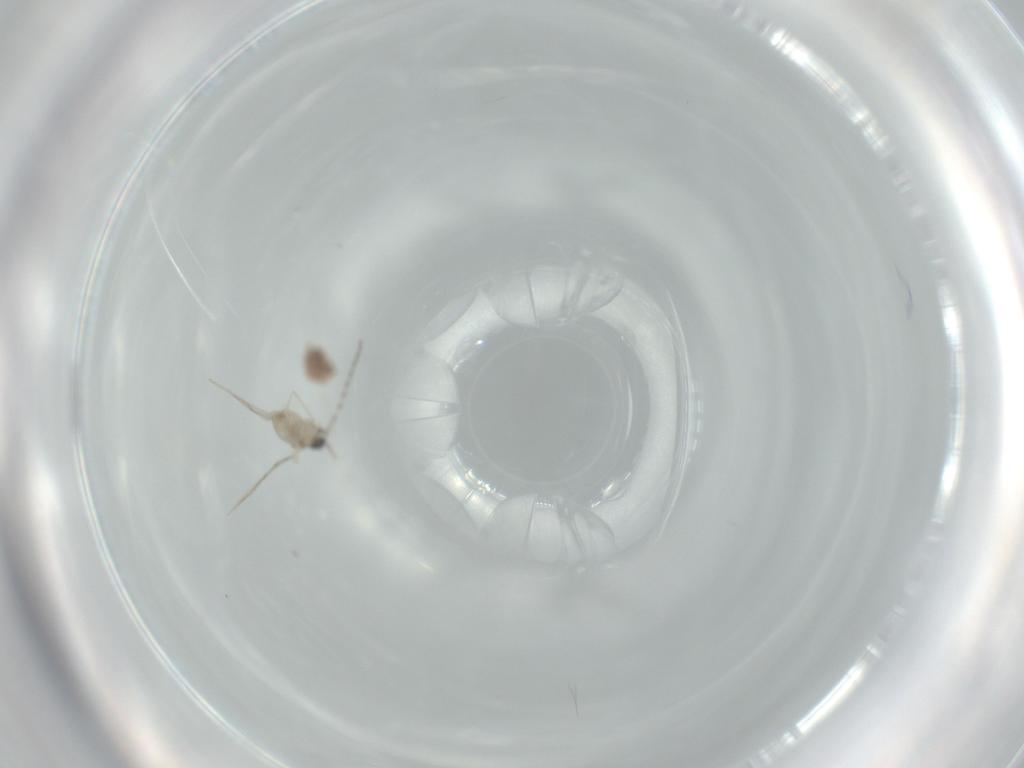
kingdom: Animalia
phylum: Arthropoda
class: Insecta
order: Diptera
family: Cecidomyiidae
